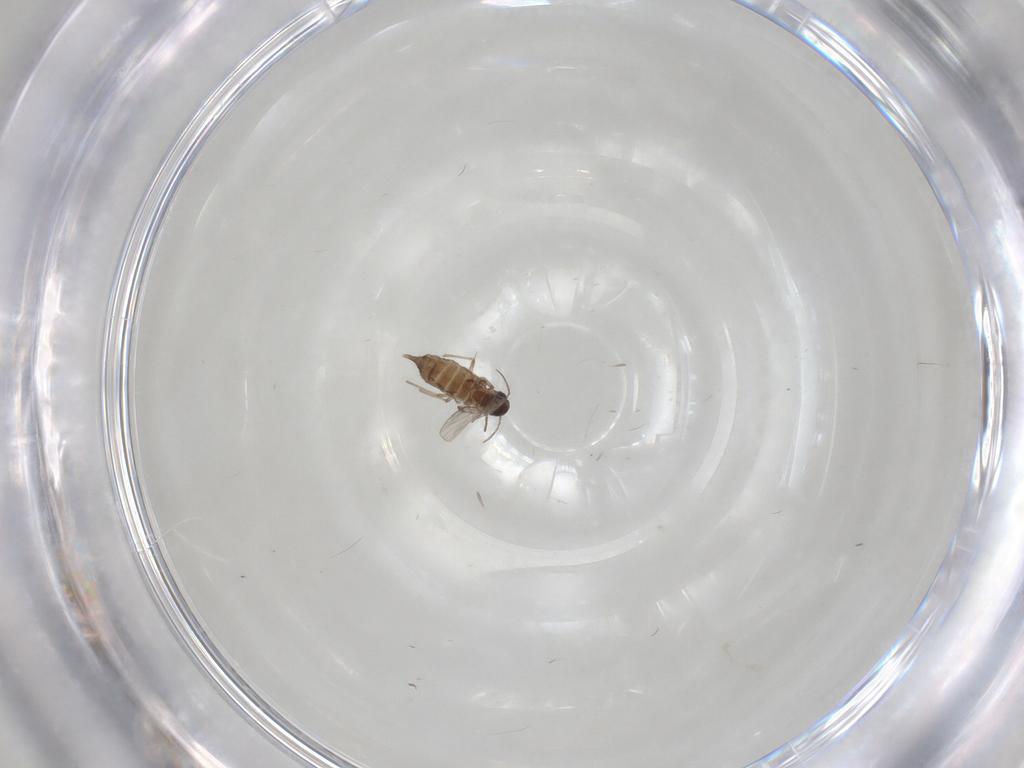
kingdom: Animalia
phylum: Arthropoda
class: Insecta
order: Diptera
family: Chironomidae
